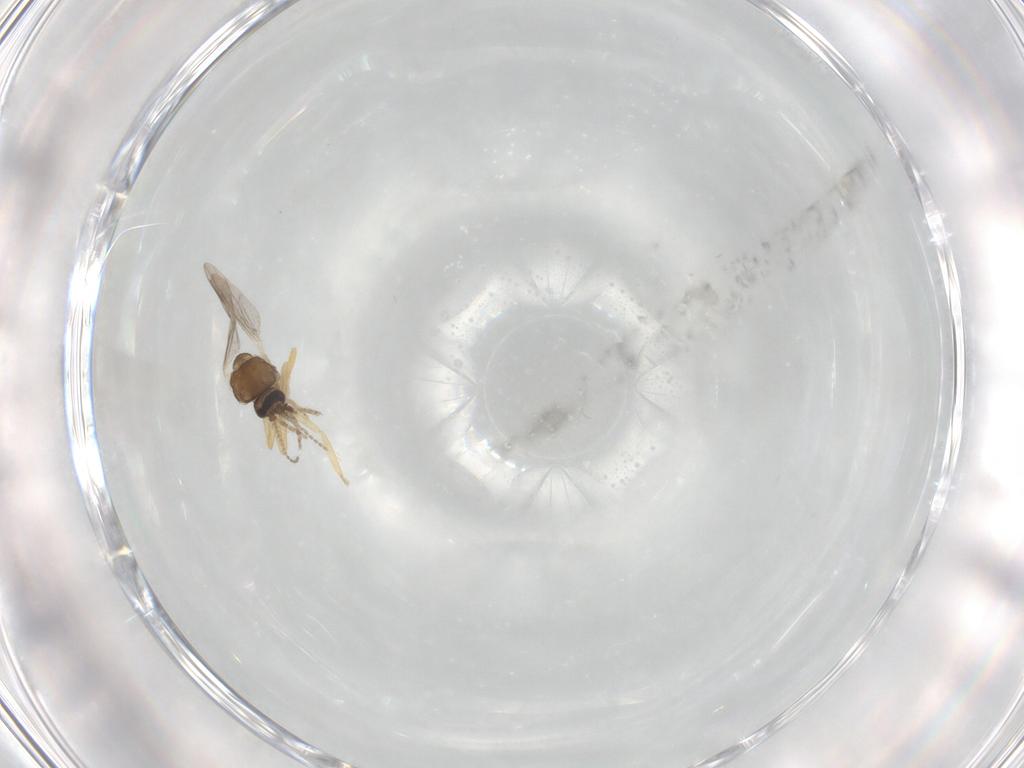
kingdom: Animalia
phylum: Arthropoda
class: Insecta
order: Diptera
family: Ceratopogonidae
